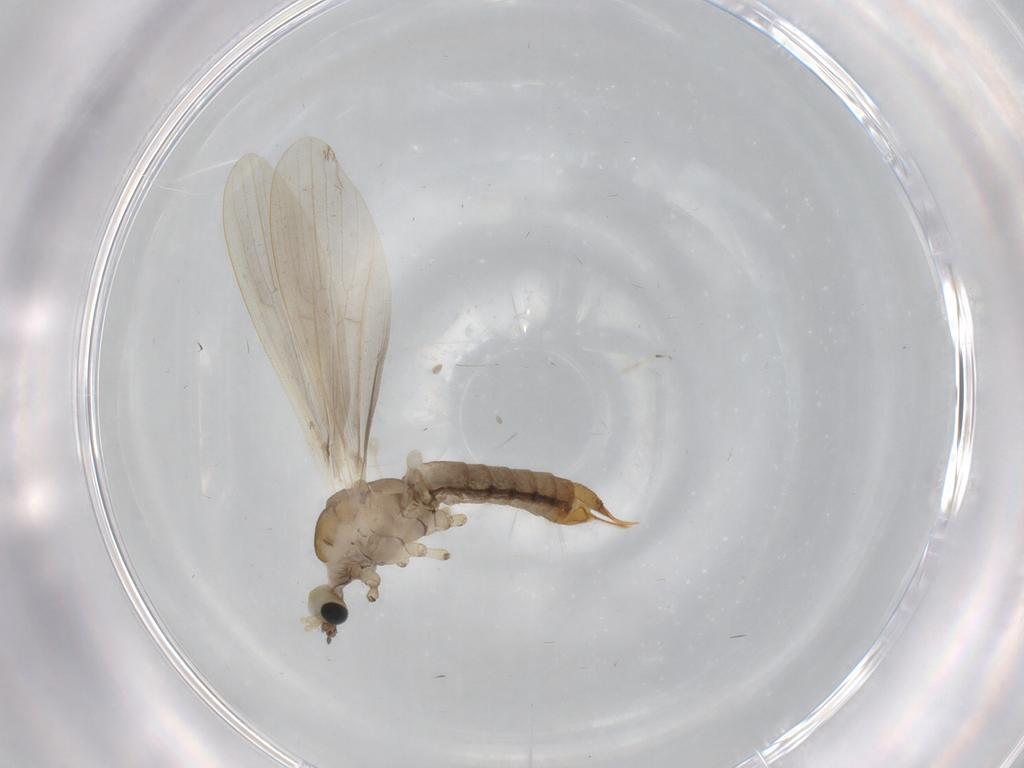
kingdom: Animalia
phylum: Arthropoda
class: Insecta
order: Diptera
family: Phoridae
